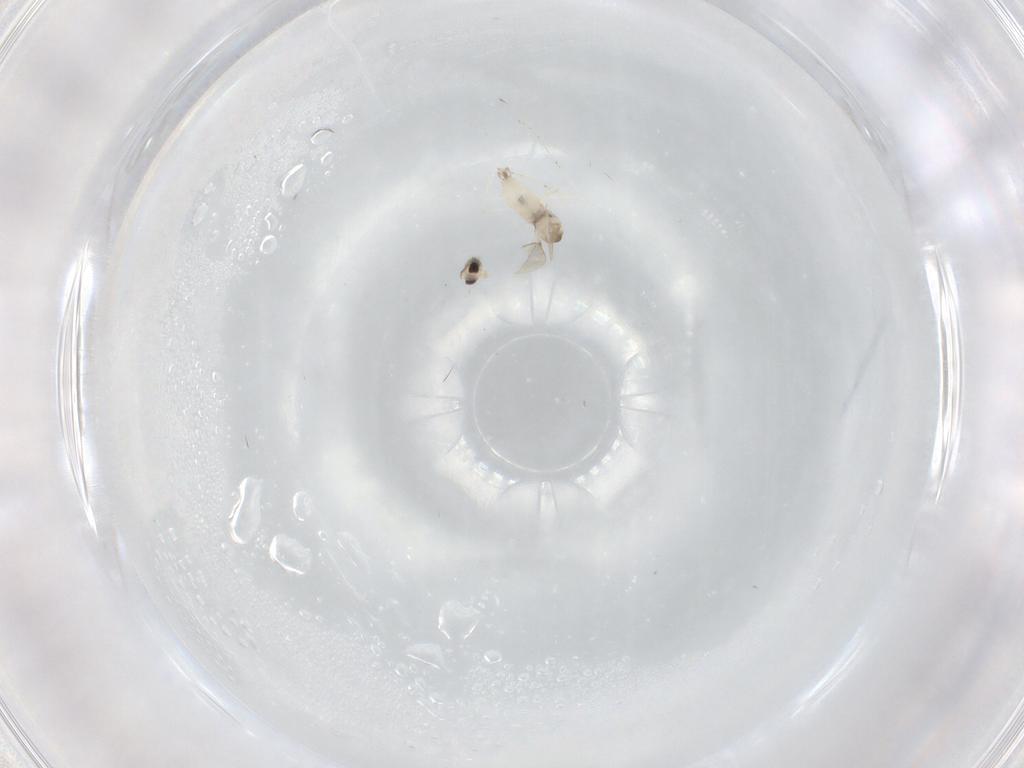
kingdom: Animalia
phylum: Arthropoda
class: Insecta
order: Diptera
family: Cecidomyiidae
